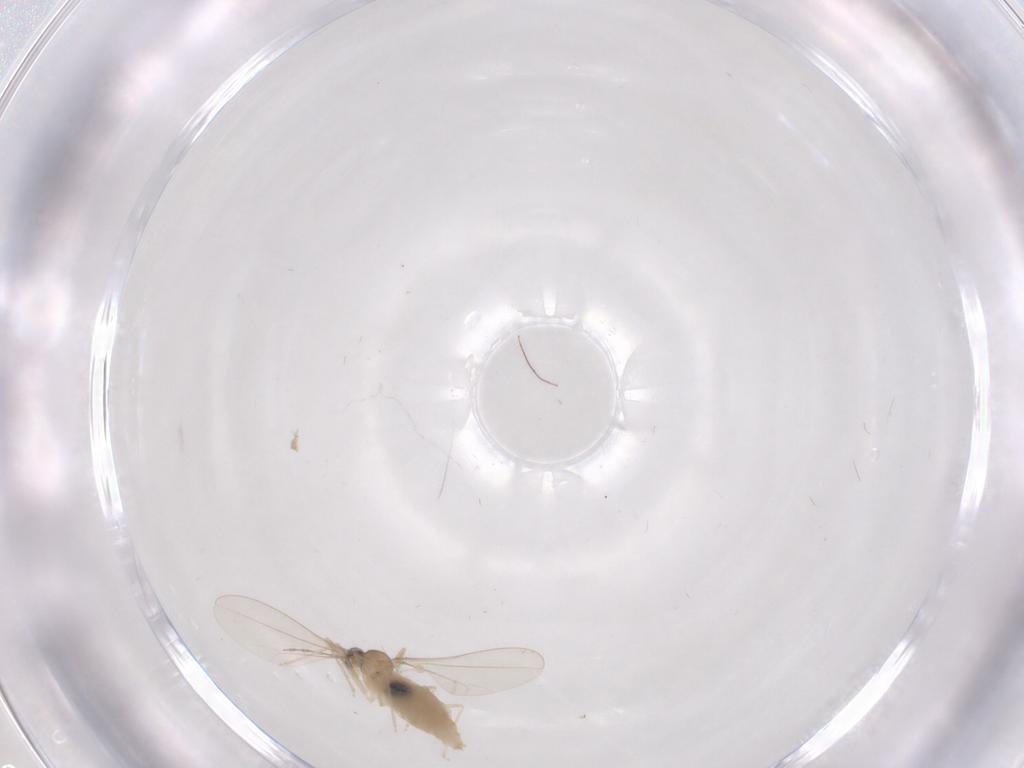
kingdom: Animalia
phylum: Arthropoda
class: Insecta
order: Diptera
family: Cecidomyiidae
